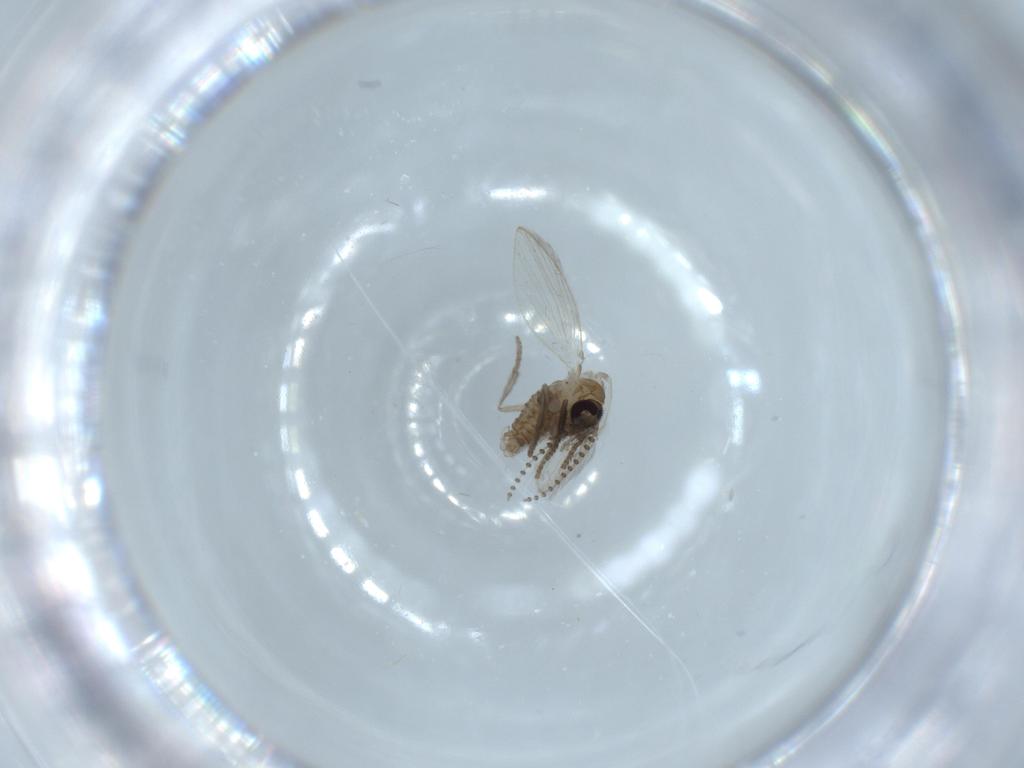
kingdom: Animalia
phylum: Arthropoda
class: Insecta
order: Diptera
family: Psychodidae
